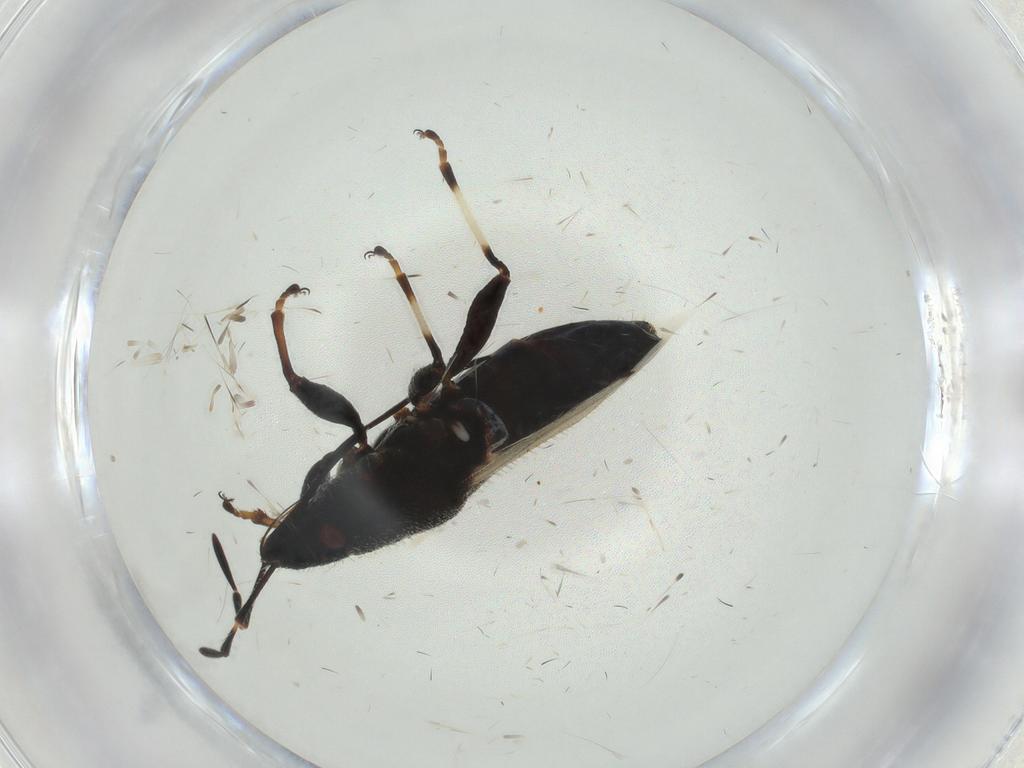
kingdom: Animalia
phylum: Arthropoda
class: Insecta
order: Hemiptera
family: Oxycarenidae
